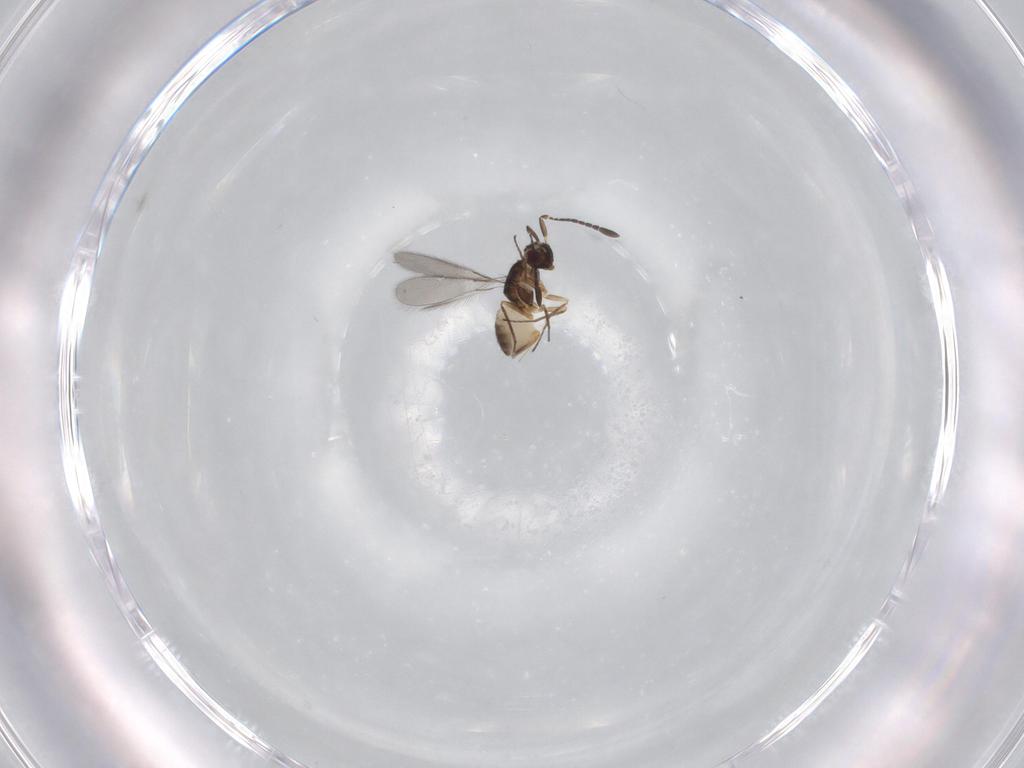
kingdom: Animalia
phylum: Arthropoda
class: Insecta
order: Hymenoptera
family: Mymaridae
